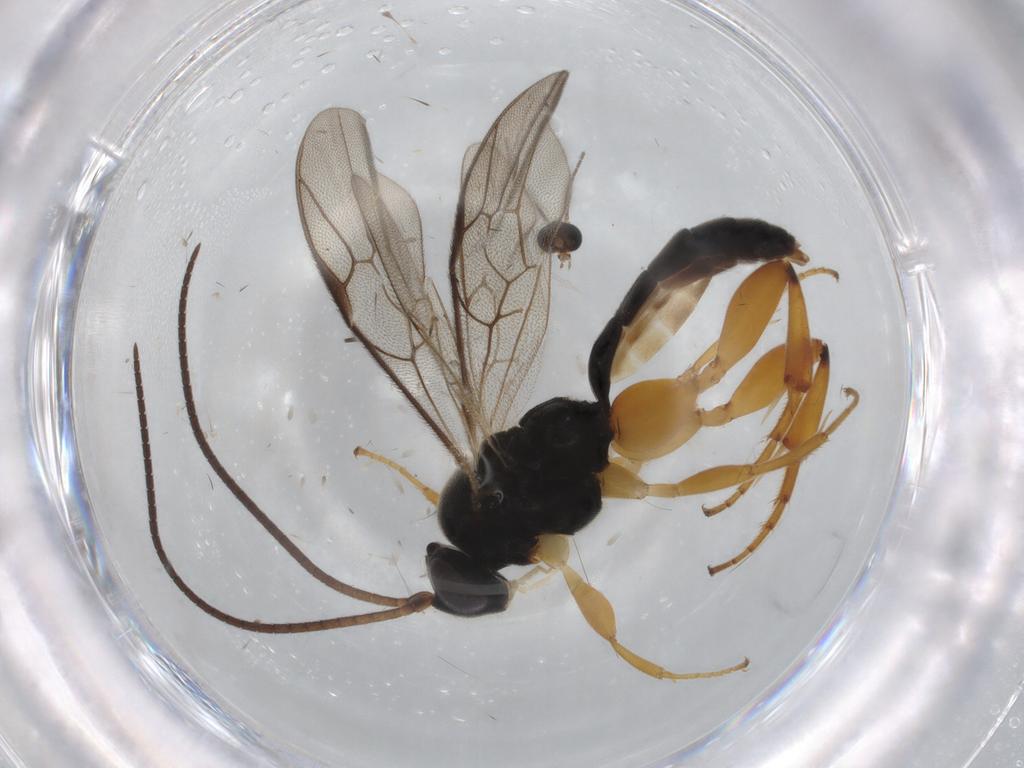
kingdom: Animalia
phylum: Arthropoda
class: Insecta
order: Hymenoptera
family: Ichneumonidae
